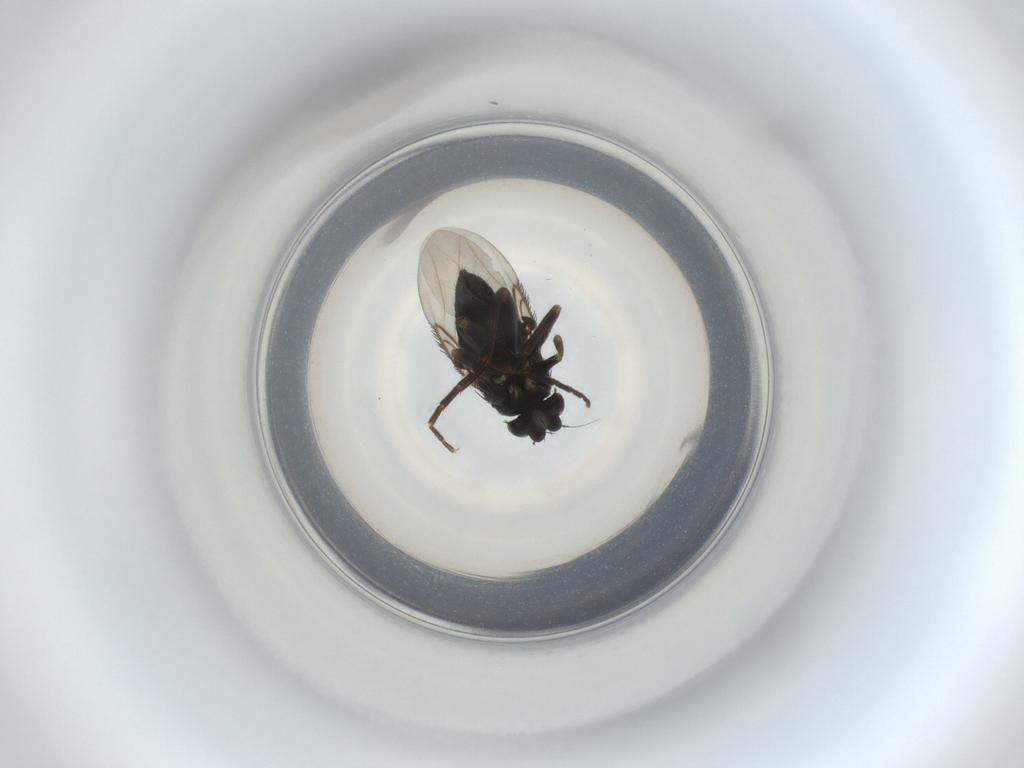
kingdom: Animalia
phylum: Arthropoda
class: Insecta
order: Diptera
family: Phoridae
